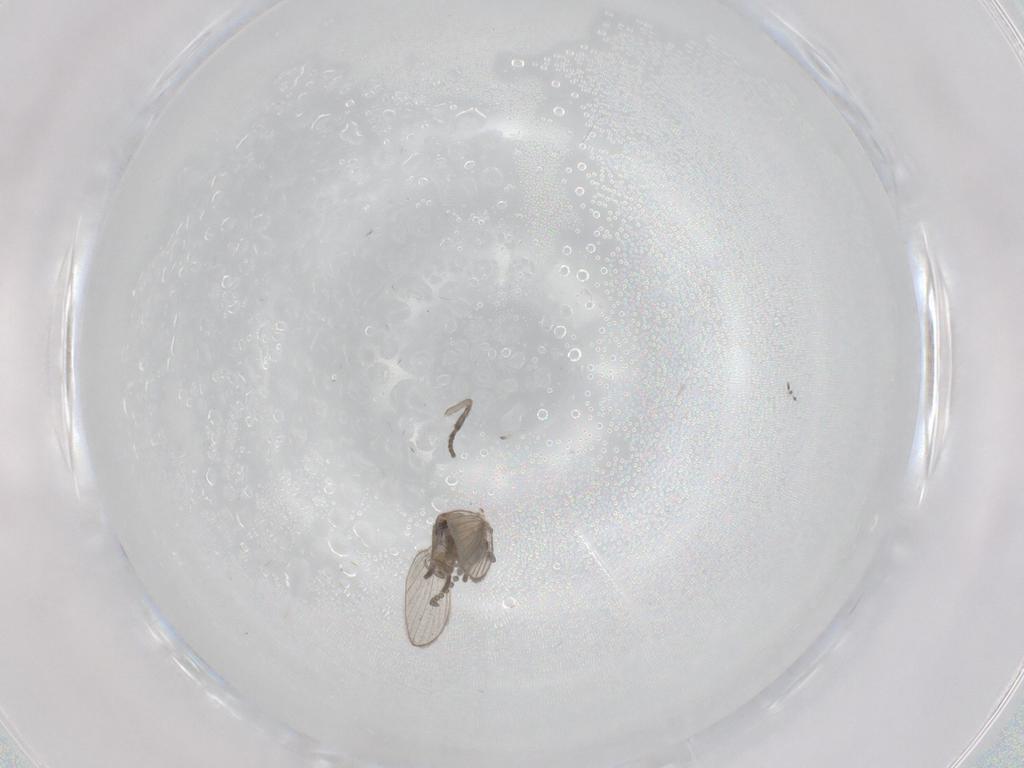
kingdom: Animalia
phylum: Arthropoda
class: Insecta
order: Diptera
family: Psychodidae
